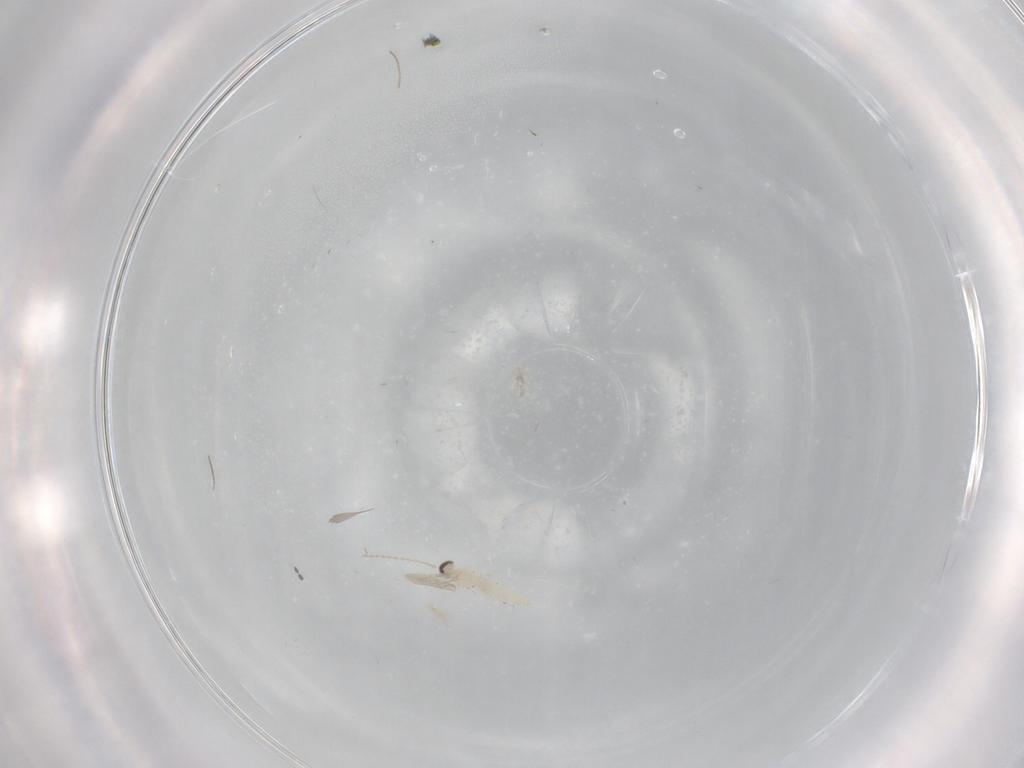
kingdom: Animalia
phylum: Arthropoda
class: Insecta
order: Diptera
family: Cecidomyiidae
